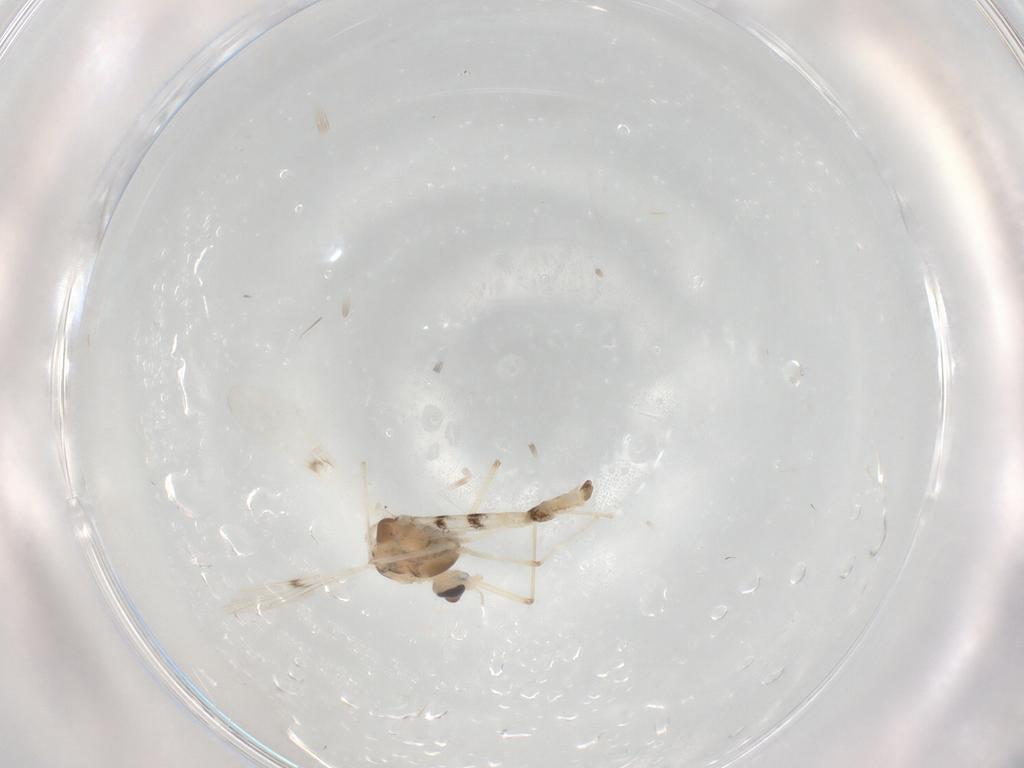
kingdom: Animalia
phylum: Arthropoda
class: Insecta
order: Diptera
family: Chironomidae
